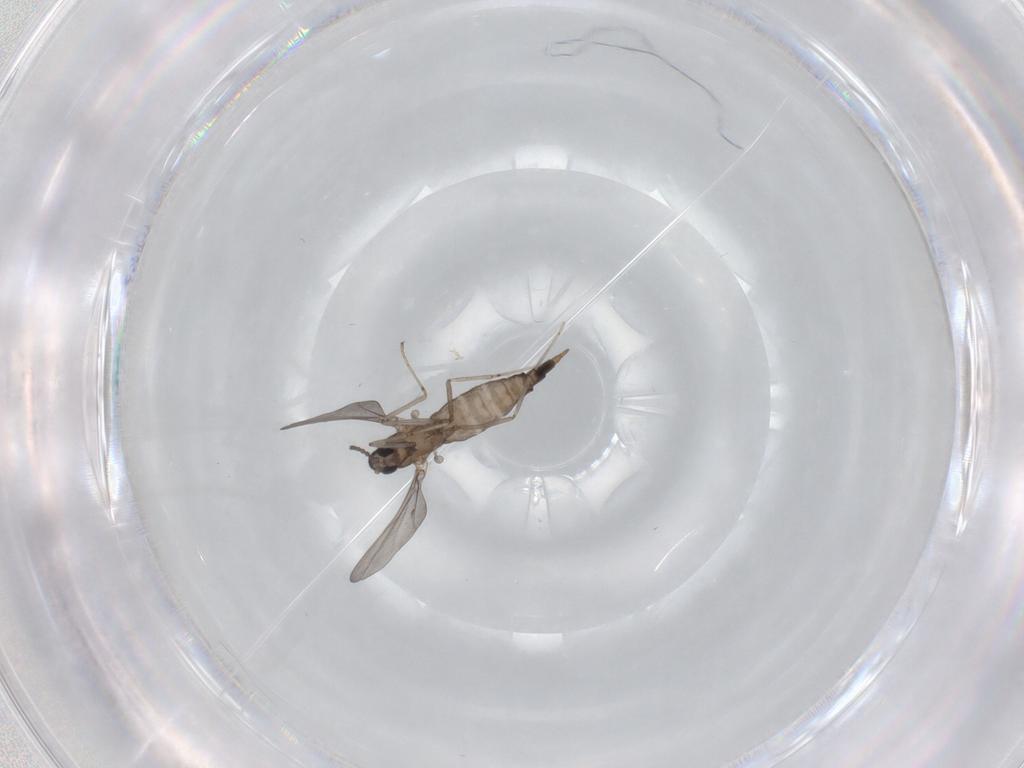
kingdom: Animalia
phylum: Arthropoda
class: Insecta
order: Diptera
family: Cecidomyiidae
